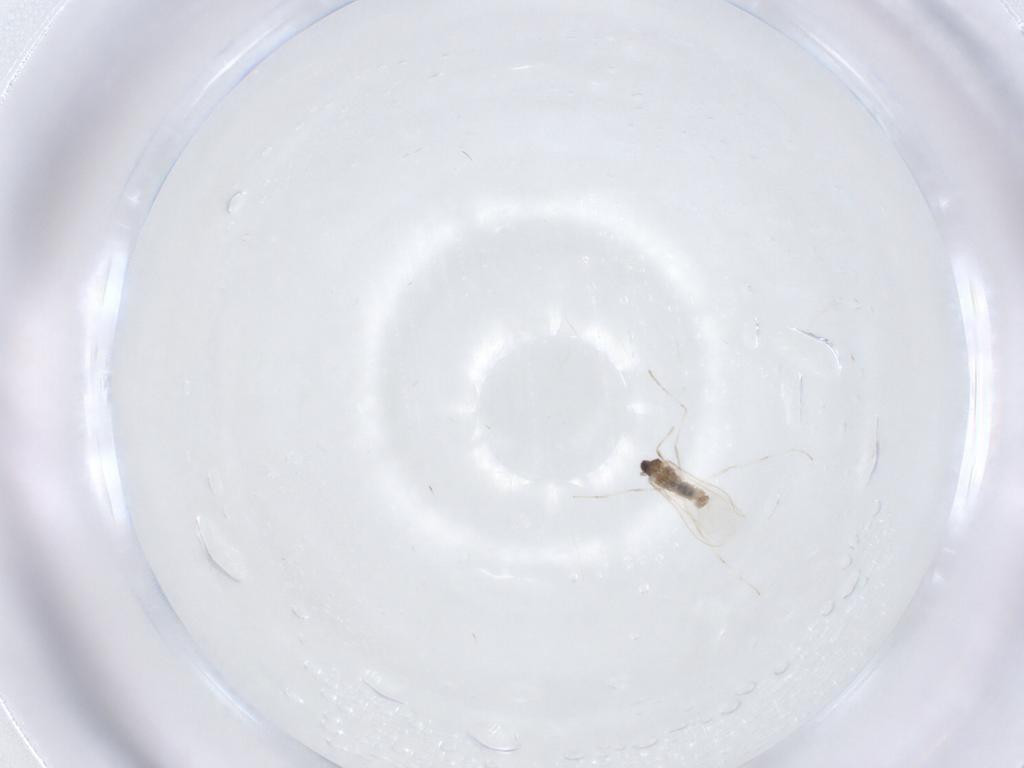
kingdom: Animalia
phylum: Arthropoda
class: Insecta
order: Diptera
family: Cecidomyiidae
